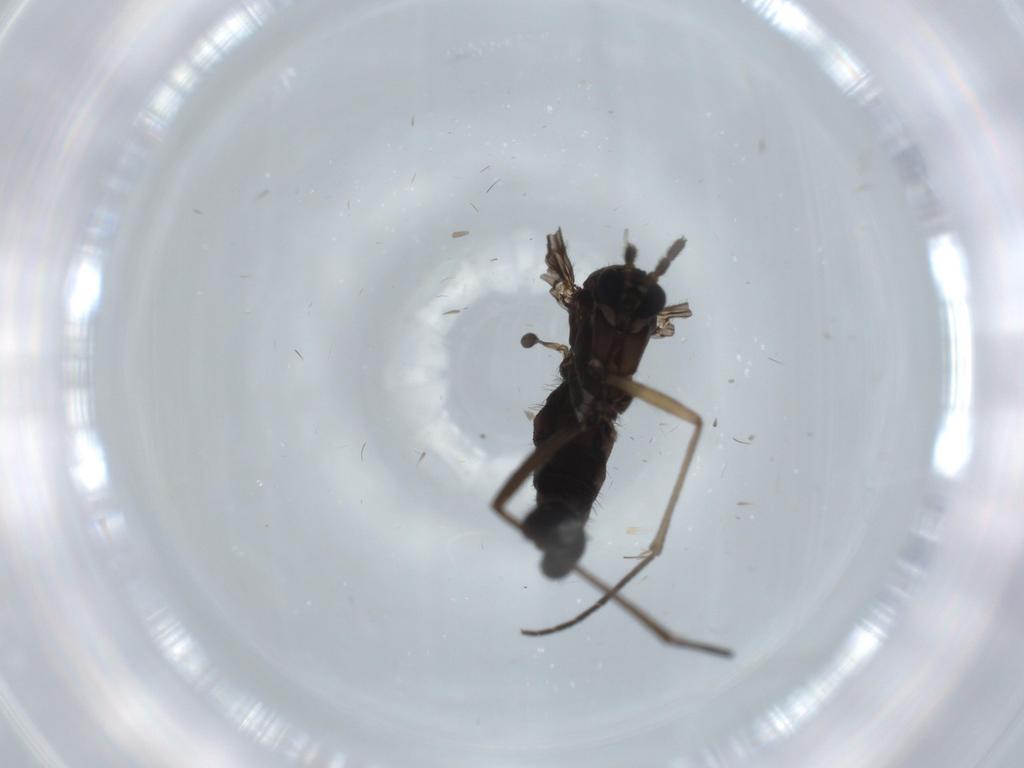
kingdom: Animalia
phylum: Arthropoda
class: Insecta
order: Diptera
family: Sciaridae
